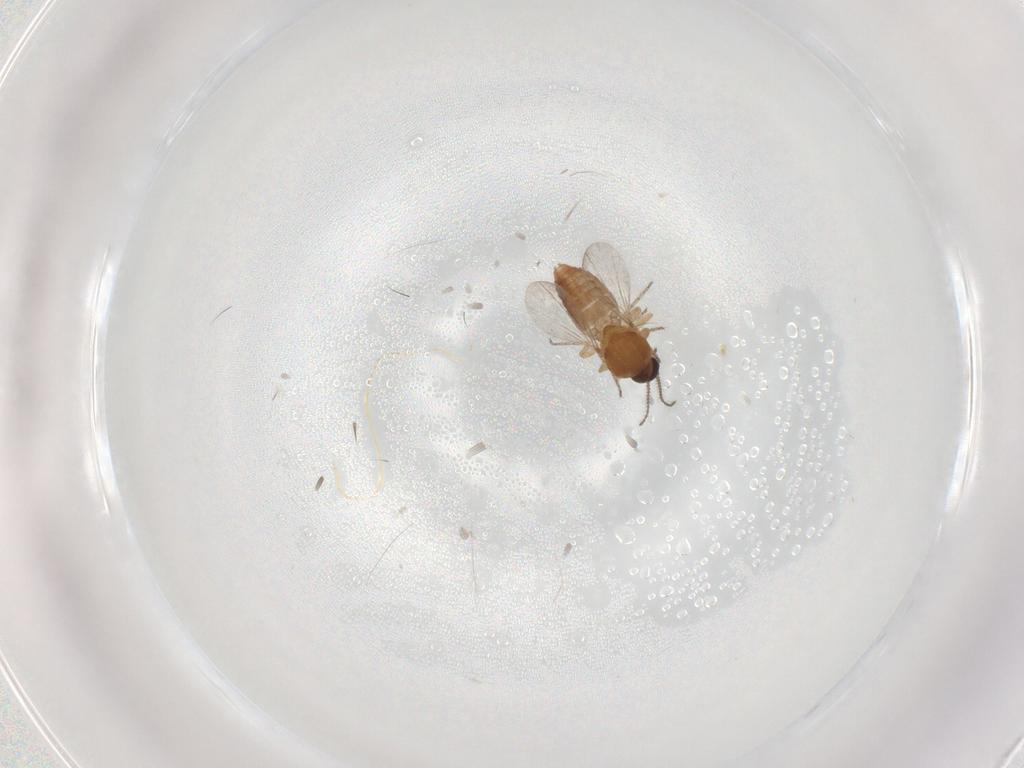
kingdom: Animalia
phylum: Arthropoda
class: Insecta
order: Diptera
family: Ceratopogonidae
